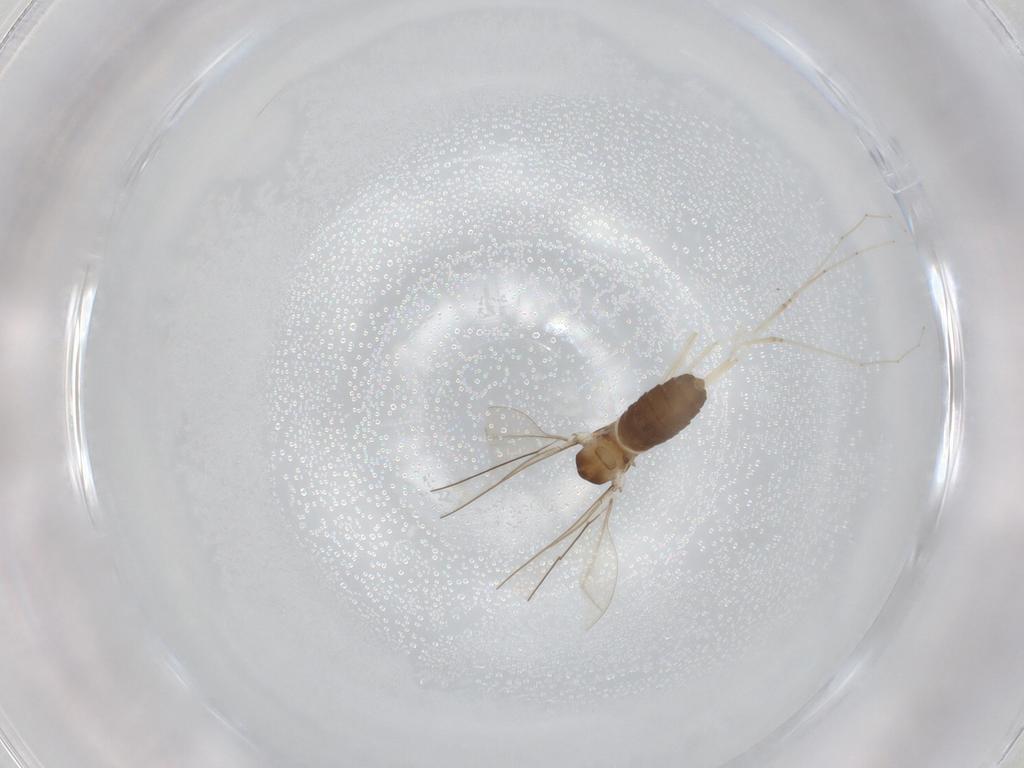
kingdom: Animalia
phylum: Arthropoda
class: Insecta
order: Diptera
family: Cecidomyiidae
